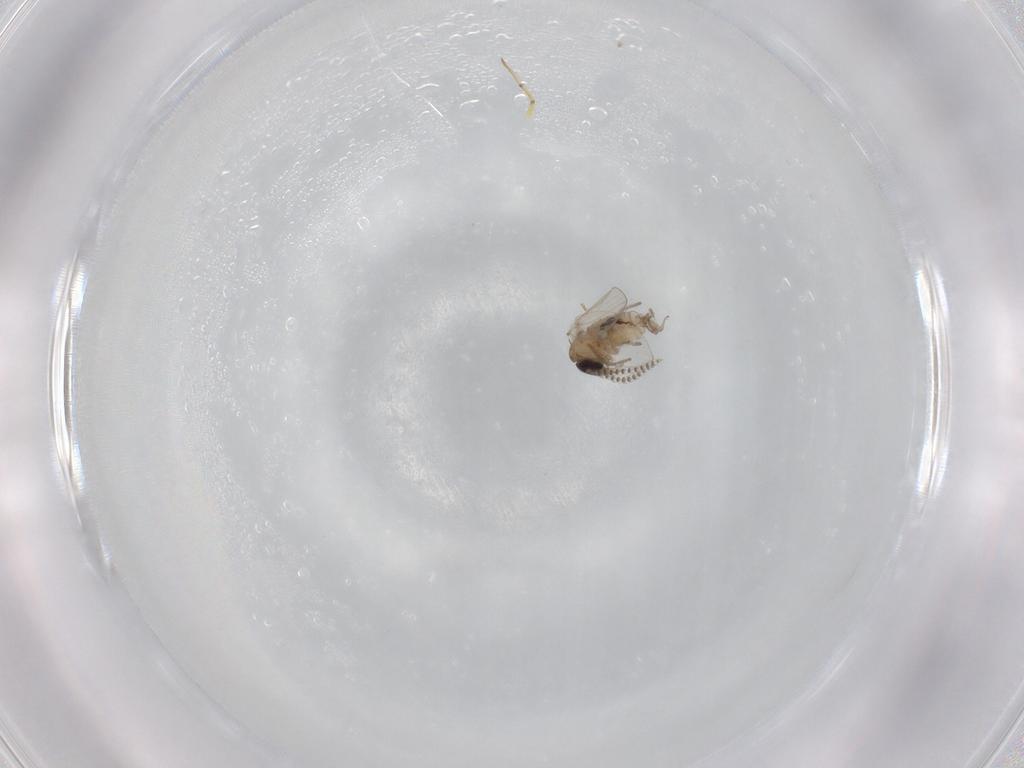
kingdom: Animalia
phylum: Arthropoda
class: Insecta
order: Diptera
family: Psychodidae
